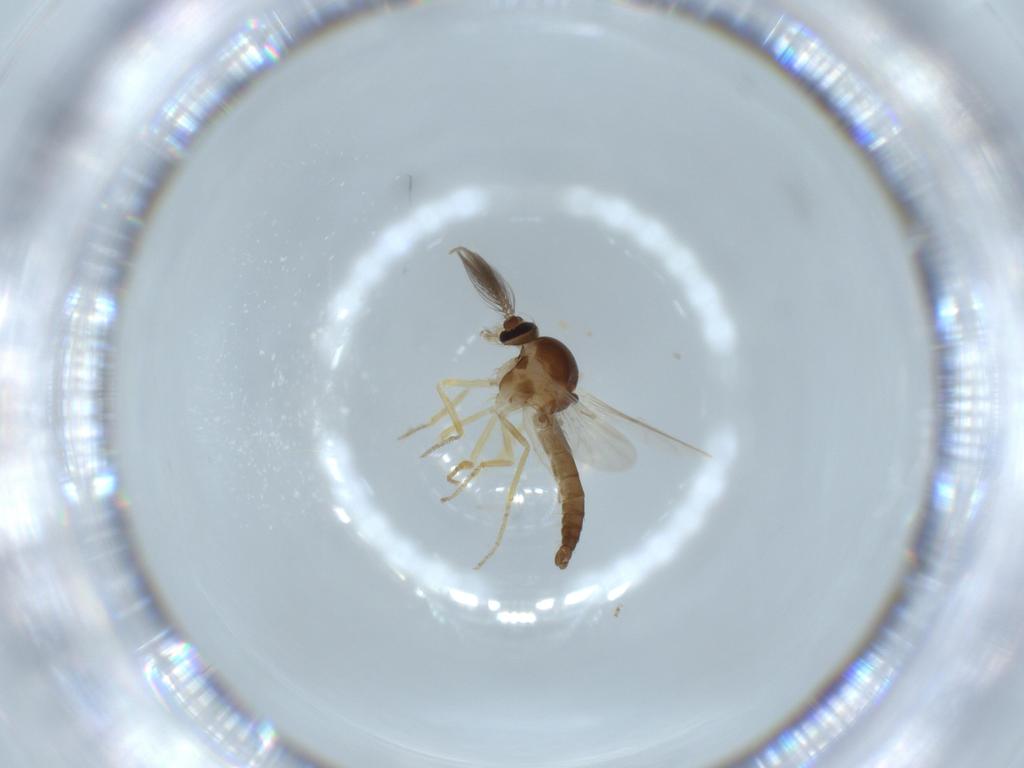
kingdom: Animalia
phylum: Arthropoda
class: Insecta
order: Diptera
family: Ceratopogonidae
